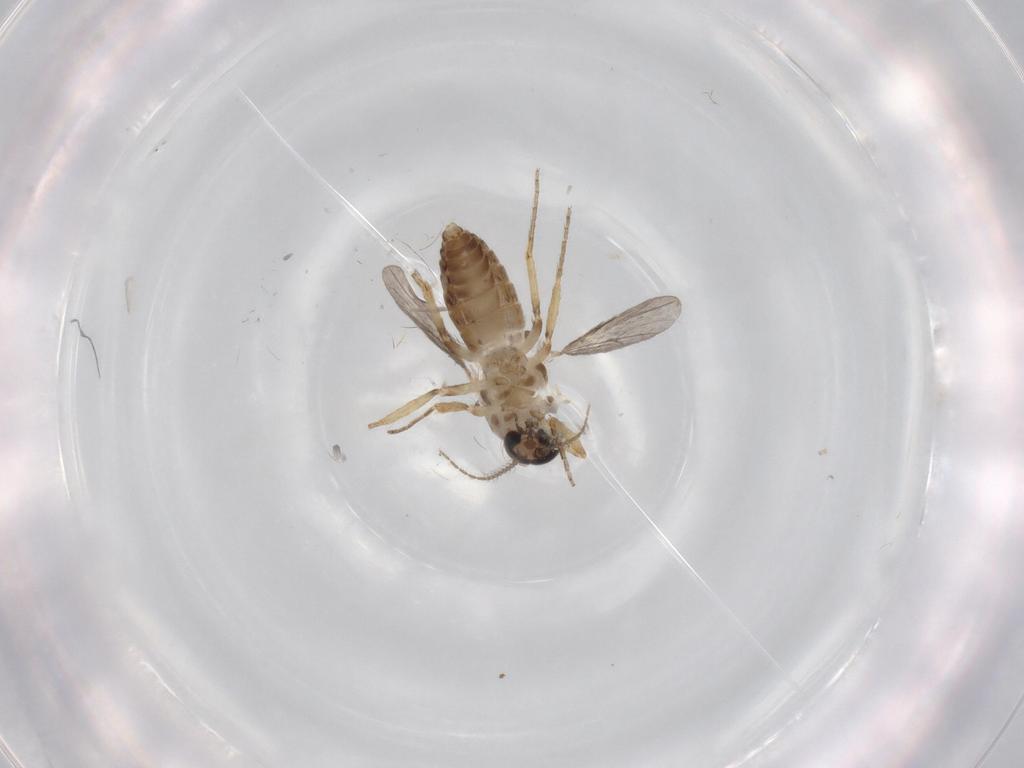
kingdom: Animalia
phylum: Arthropoda
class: Insecta
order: Diptera
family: Ceratopogonidae
